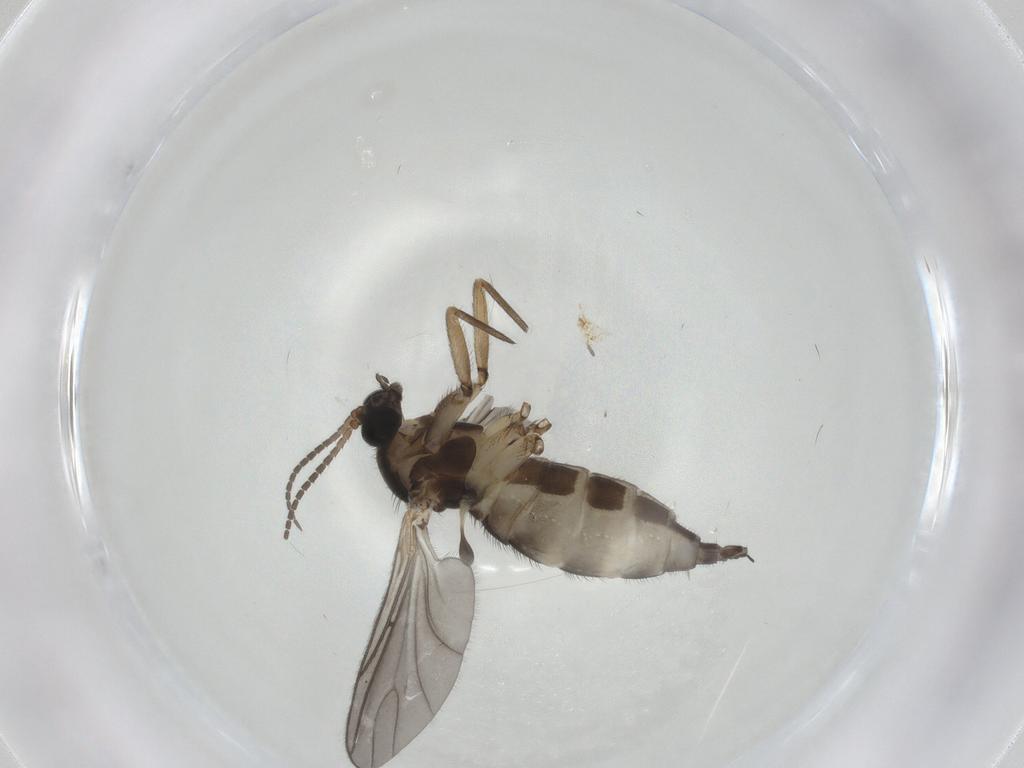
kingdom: Animalia
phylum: Arthropoda
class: Insecta
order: Diptera
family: Sciaridae
